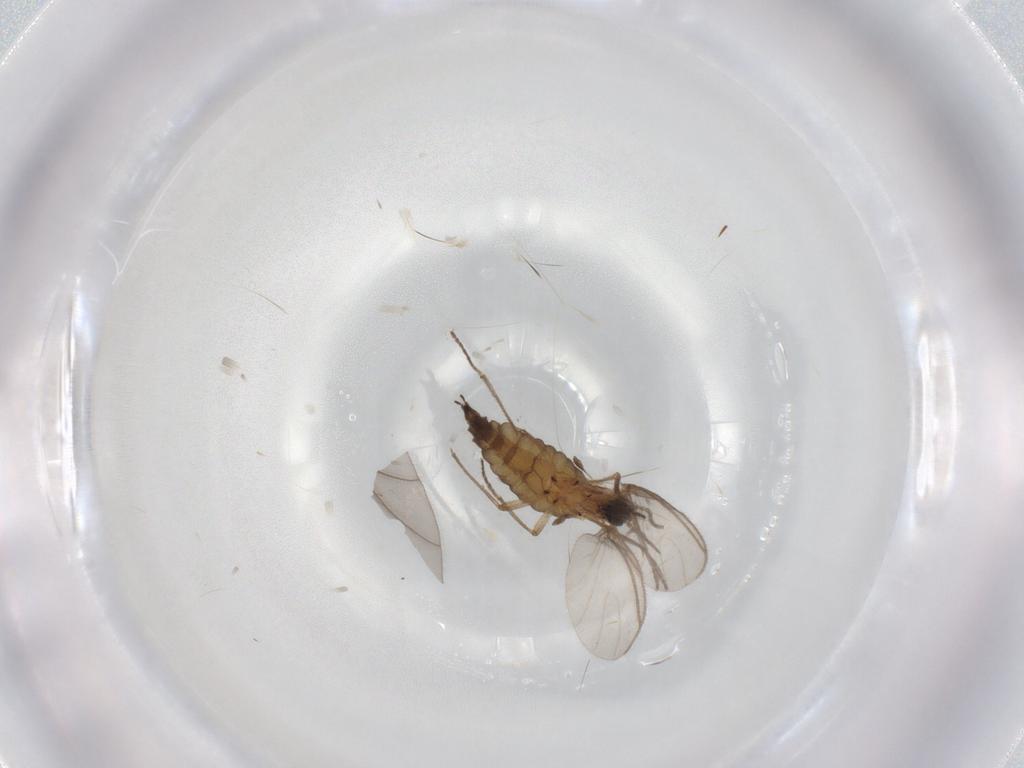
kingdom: Animalia
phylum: Arthropoda
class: Insecta
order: Diptera
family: Sciaridae
